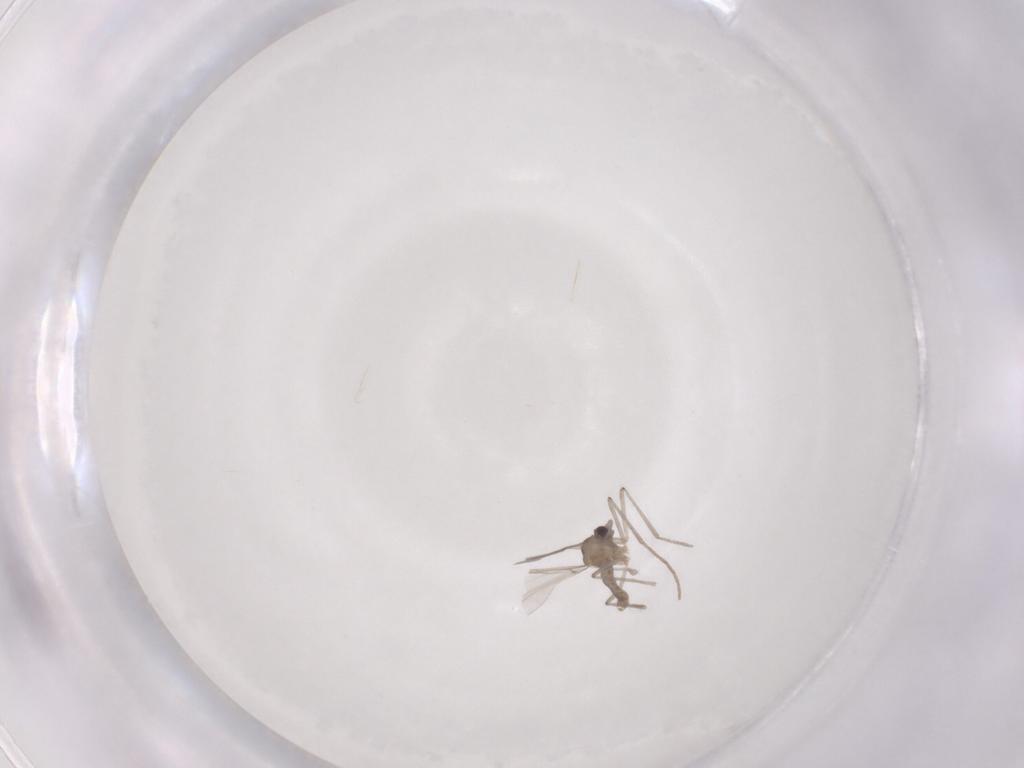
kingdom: Animalia
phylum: Arthropoda
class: Insecta
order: Diptera
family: Cecidomyiidae
